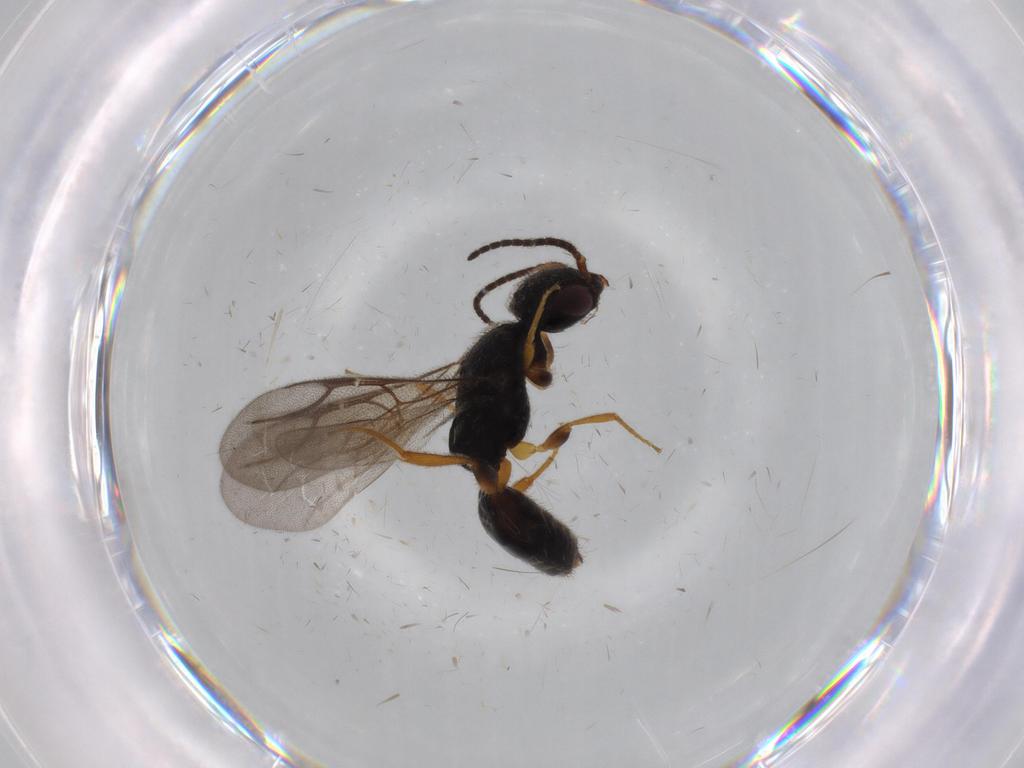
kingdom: Animalia
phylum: Arthropoda
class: Insecta
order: Hymenoptera
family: Bethylidae
